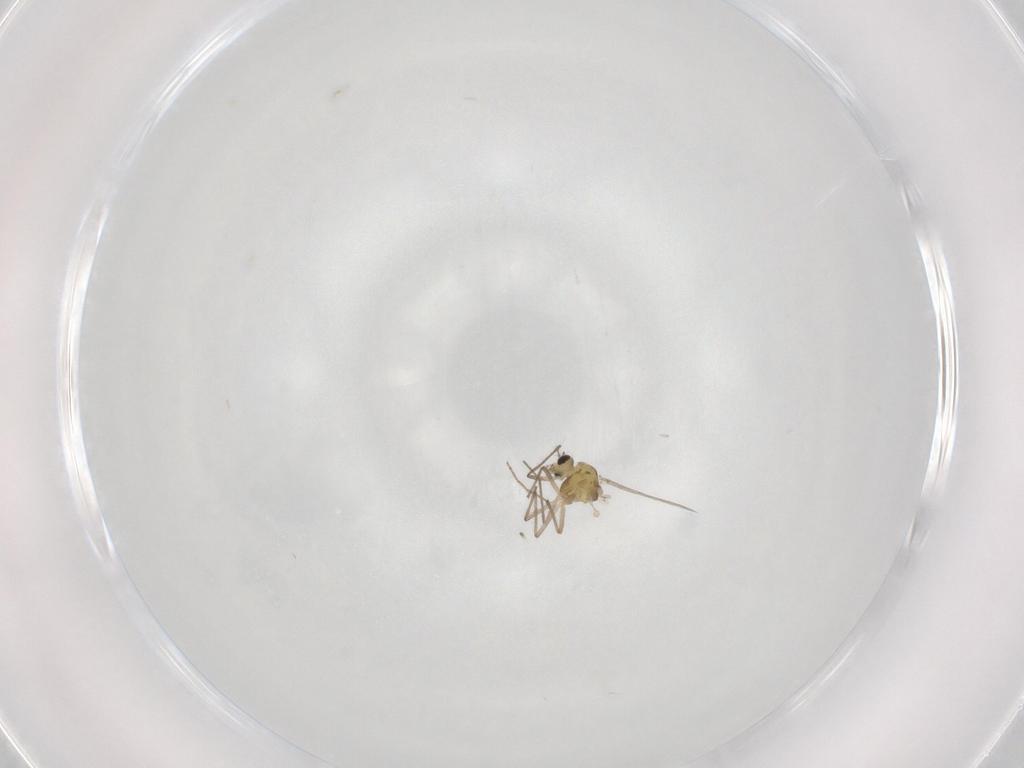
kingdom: Animalia
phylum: Arthropoda
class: Insecta
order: Diptera
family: Chironomidae
